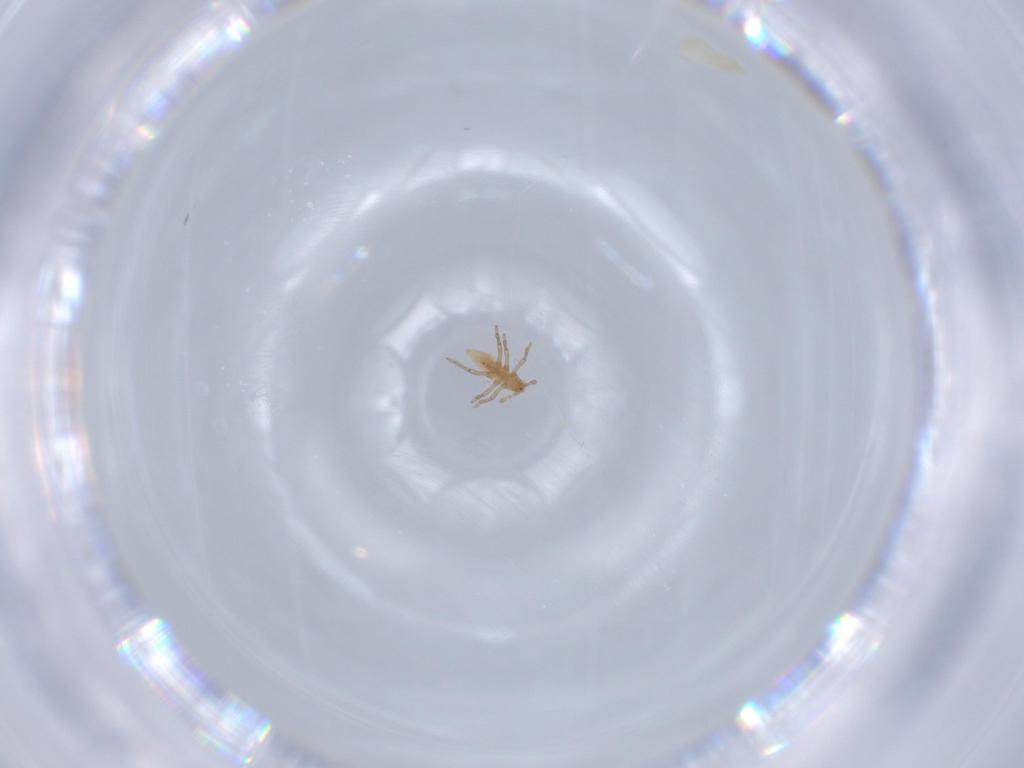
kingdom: Animalia
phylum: Arthropoda
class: Insecta
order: Hemiptera
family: Aphididae
